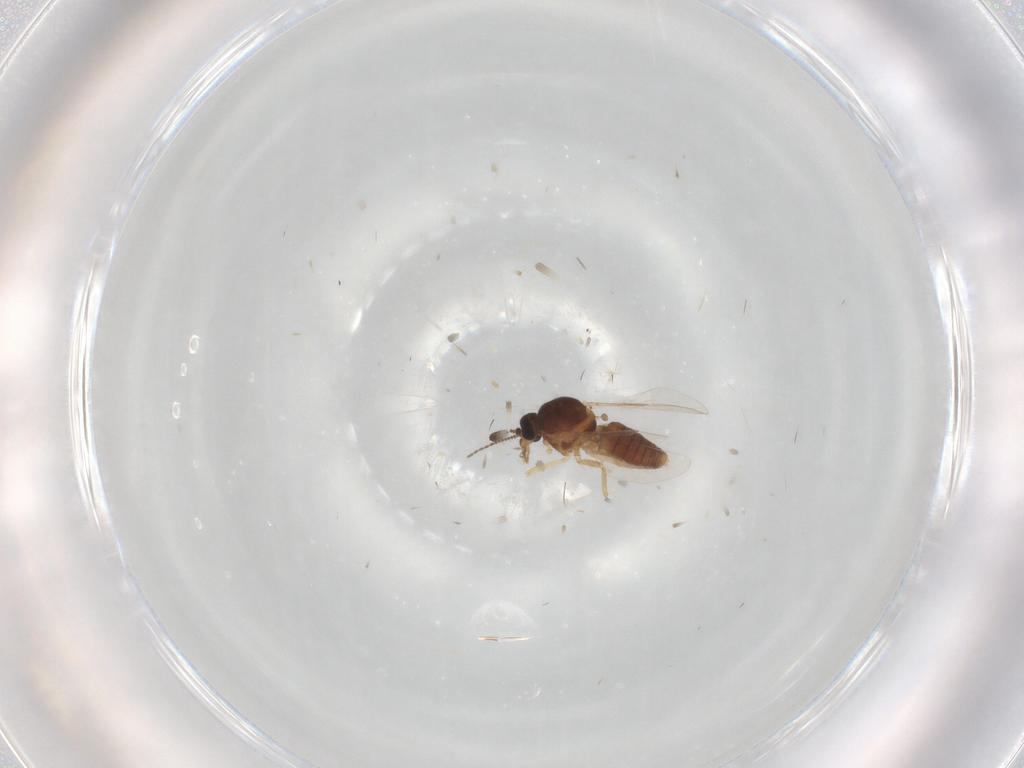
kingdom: Animalia
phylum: Arthropoda
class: Insecta
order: Diptera
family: Ceratopogonidae
